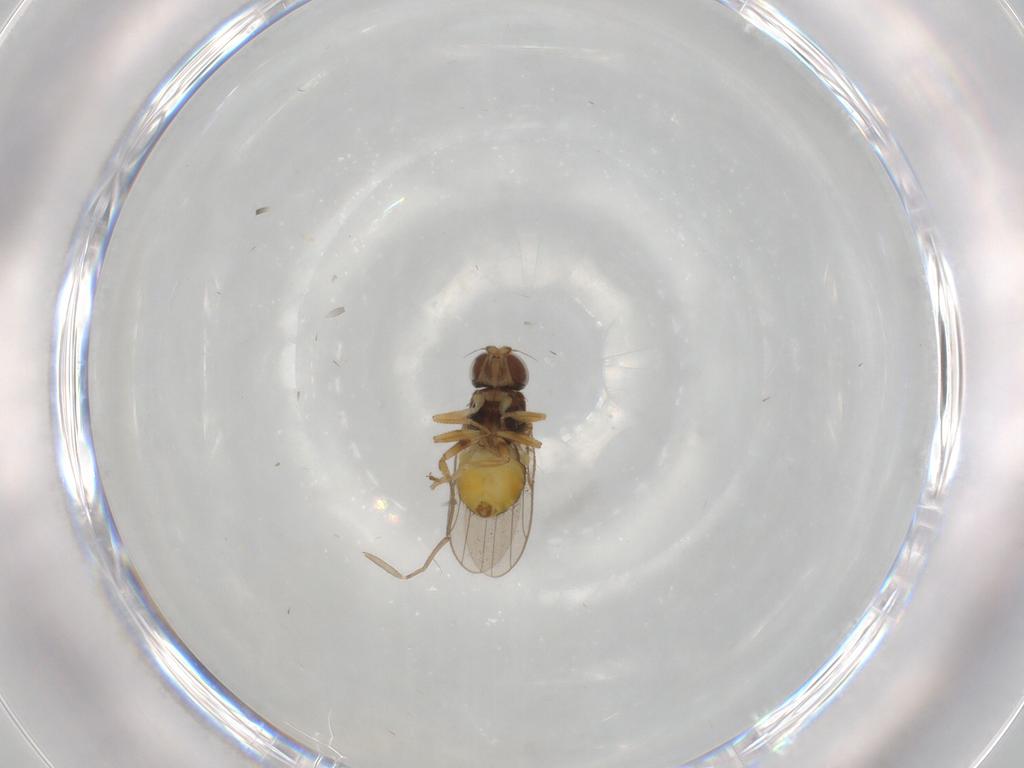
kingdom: Animalia
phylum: Arthropoda
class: Insecta
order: Diptera
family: Chloropidae
